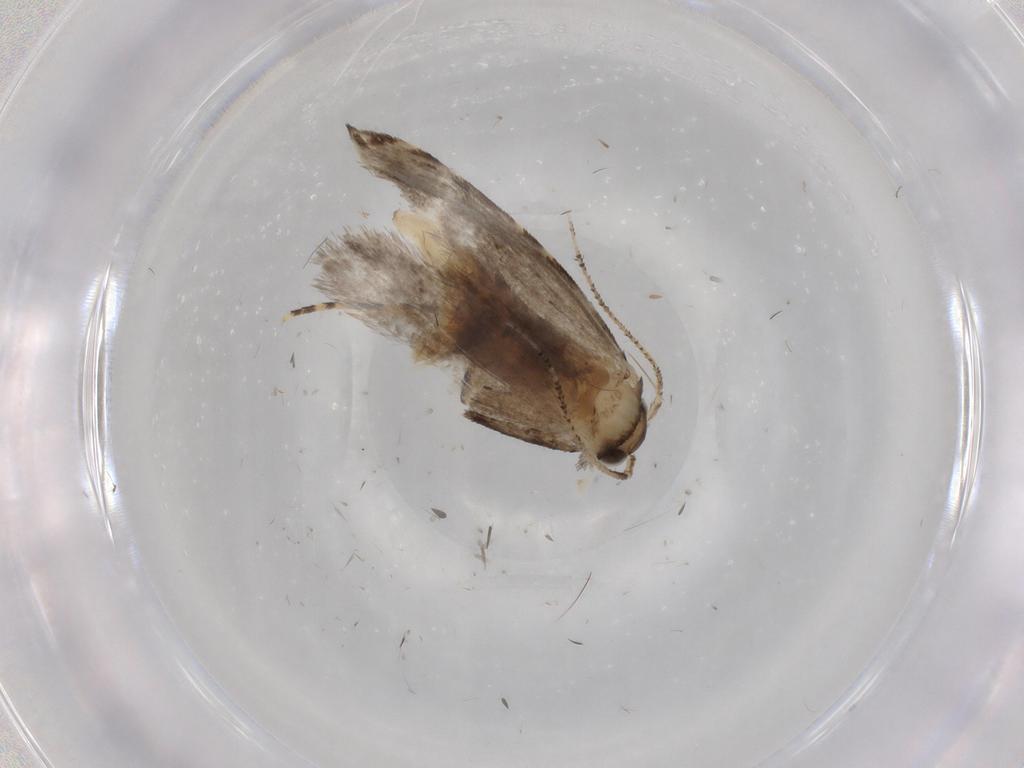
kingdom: Animalia
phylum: Arthropoda
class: Insecta
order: Lepidoptera
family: Tineidae
